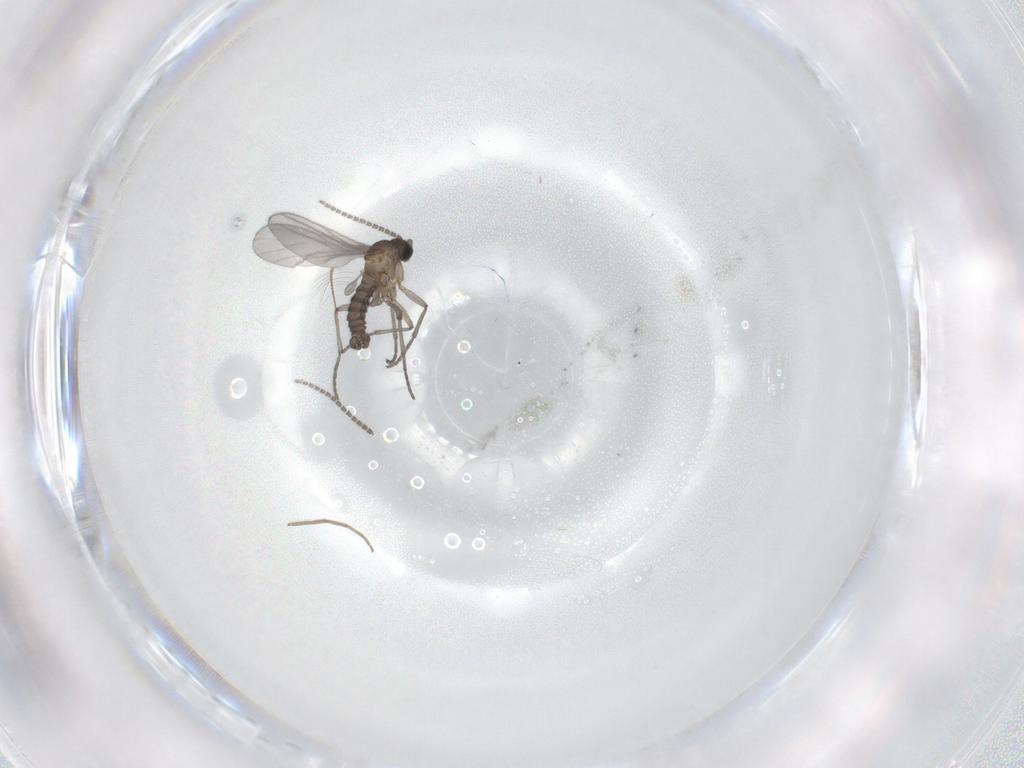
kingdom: Animalia
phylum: Arthropoda
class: Insecta
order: Diptera
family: Sciaridae
